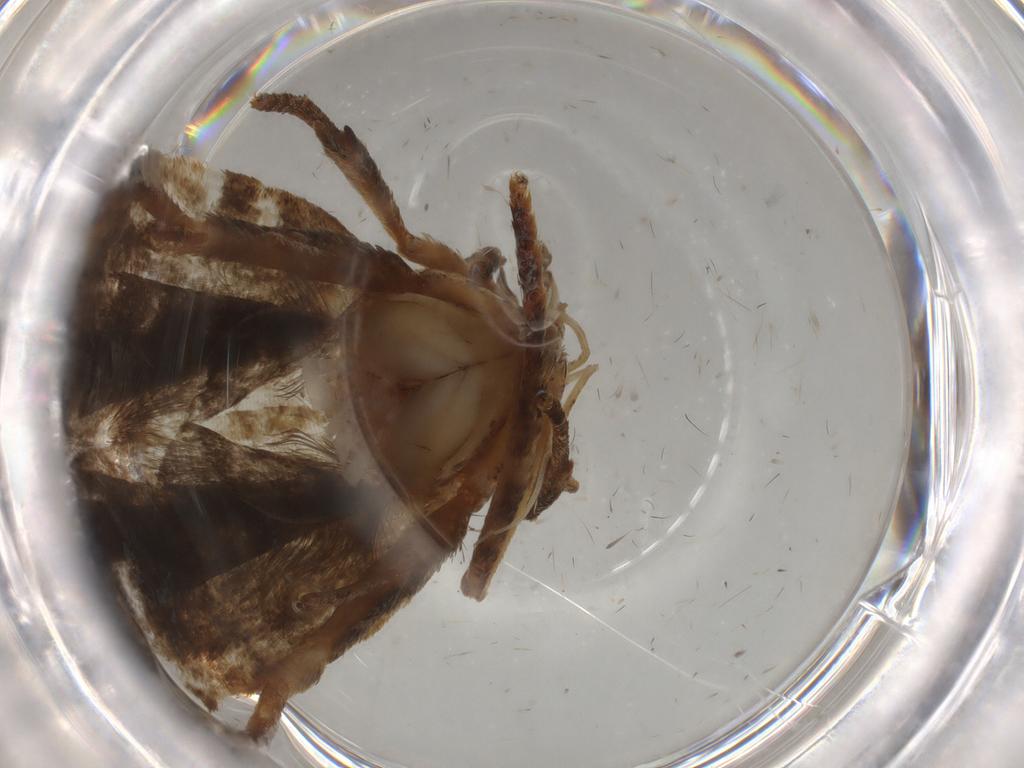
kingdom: Animalia
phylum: Arthropoda
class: Insecta
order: Lepidoptera
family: Autostichidae
